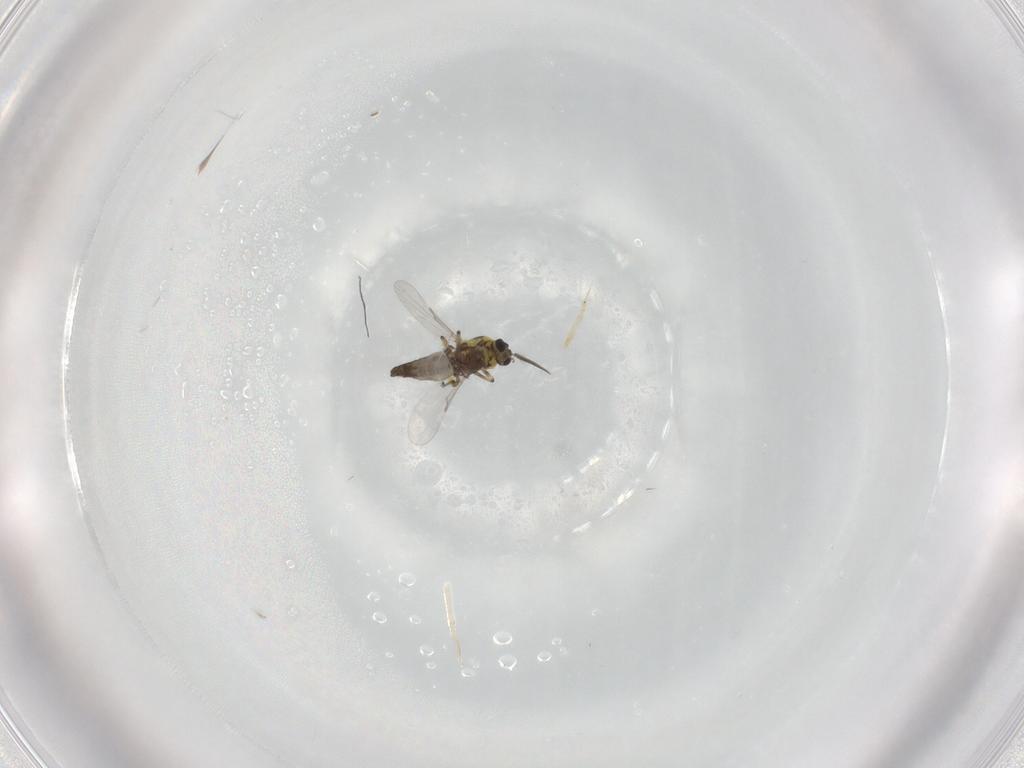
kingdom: Animalia
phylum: Arthropoda
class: Insecta
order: Diptera
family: Ceratopogonidae
